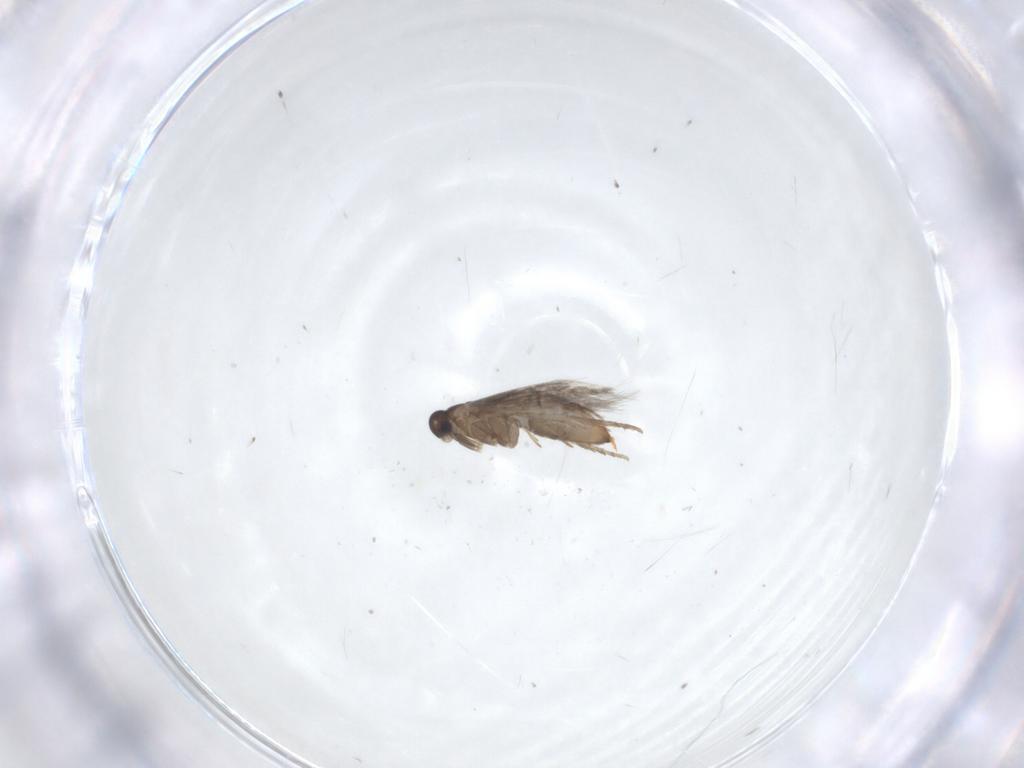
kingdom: Animalia
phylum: Arthropoda
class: Insecta
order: Lepidoptera
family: Heliozelidae
